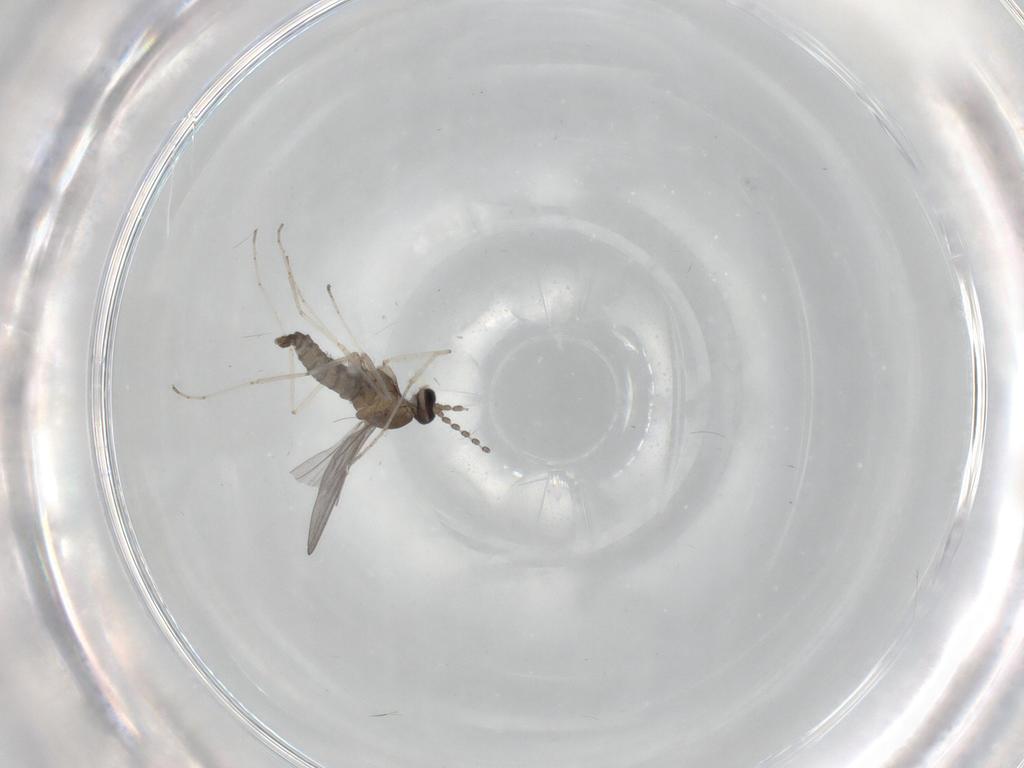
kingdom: Animalia
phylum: Arthropoda
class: Insecta
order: Diptera
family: Cecidomyiidae
